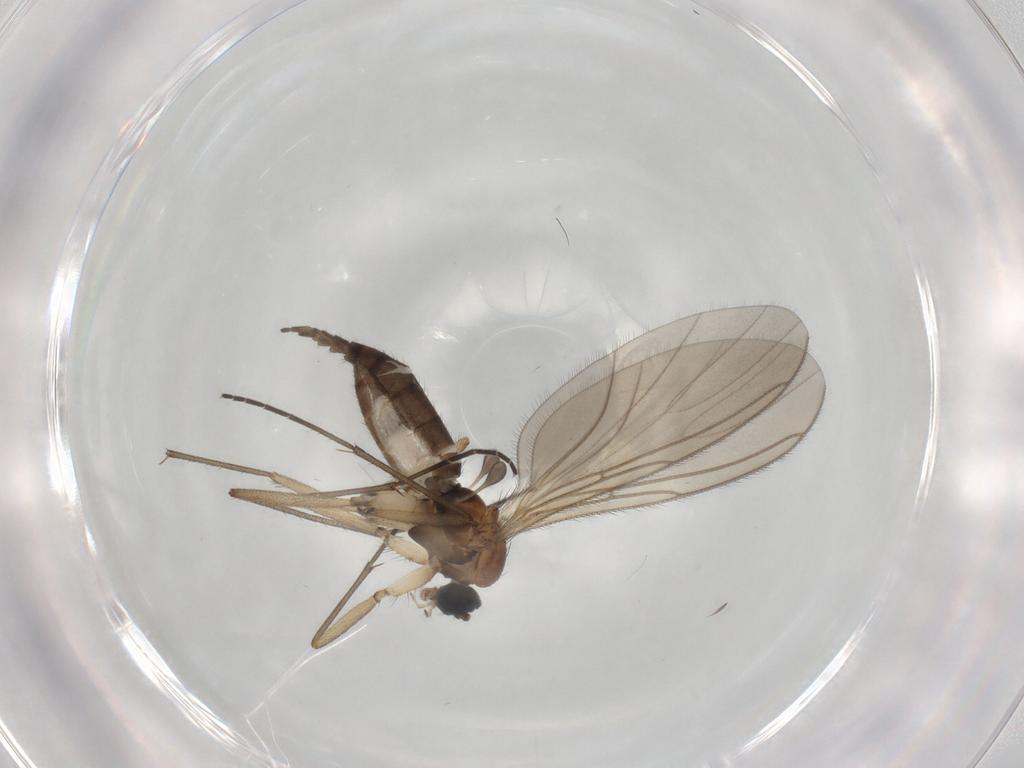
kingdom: Animalia
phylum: Arthropoda
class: Insecta
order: Diptera
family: Sciaridae
